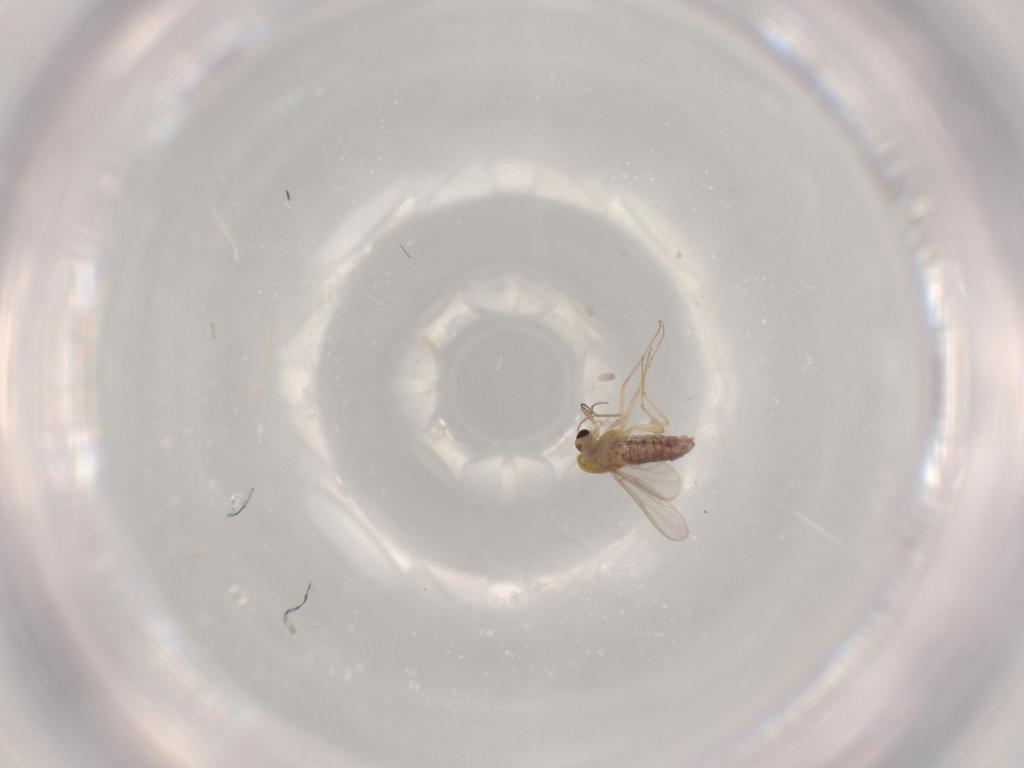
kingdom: Animalia
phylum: Arthropoda
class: Insecta
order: Diptera
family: Chironomidae
